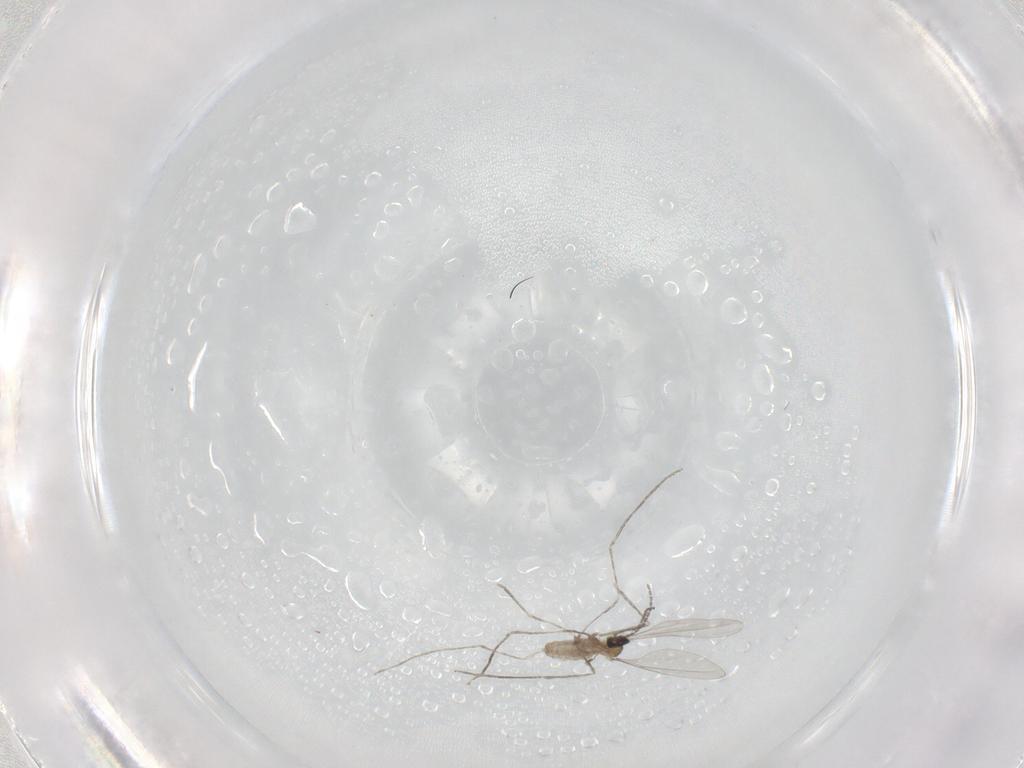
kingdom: Animalia
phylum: Arthropoda
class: Insecta
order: Diptera
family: Cecidomyiidae
